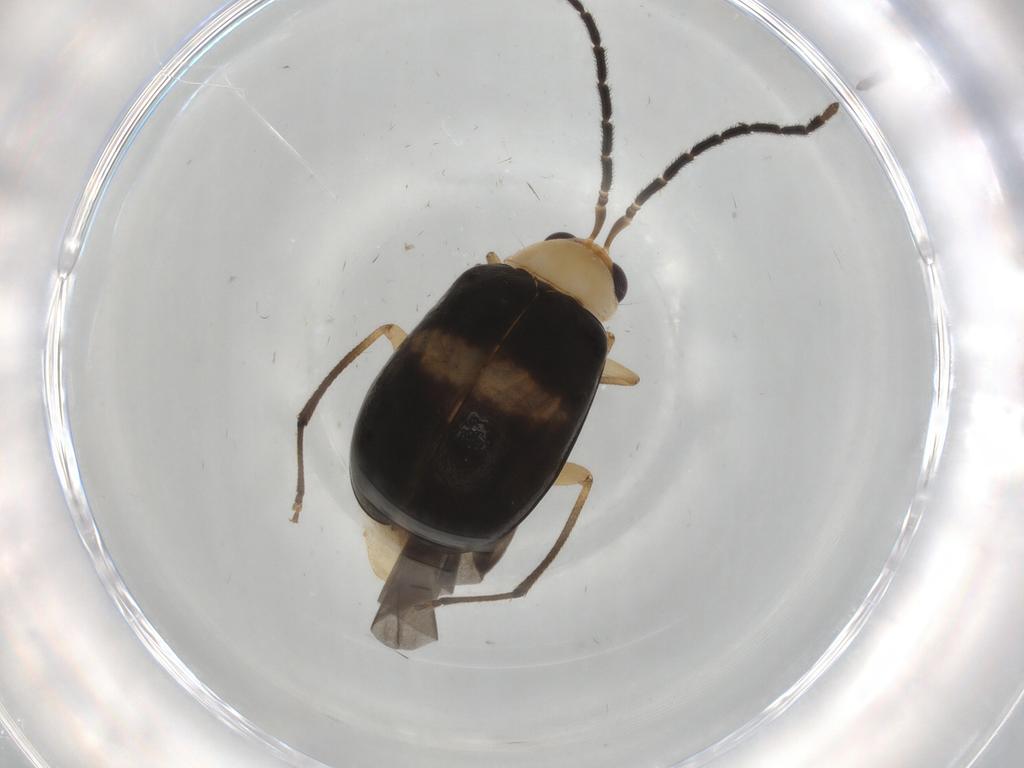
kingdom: Animalia
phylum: Arthropoda
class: Insecta
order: Coleoptera
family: Chrysomelidae
